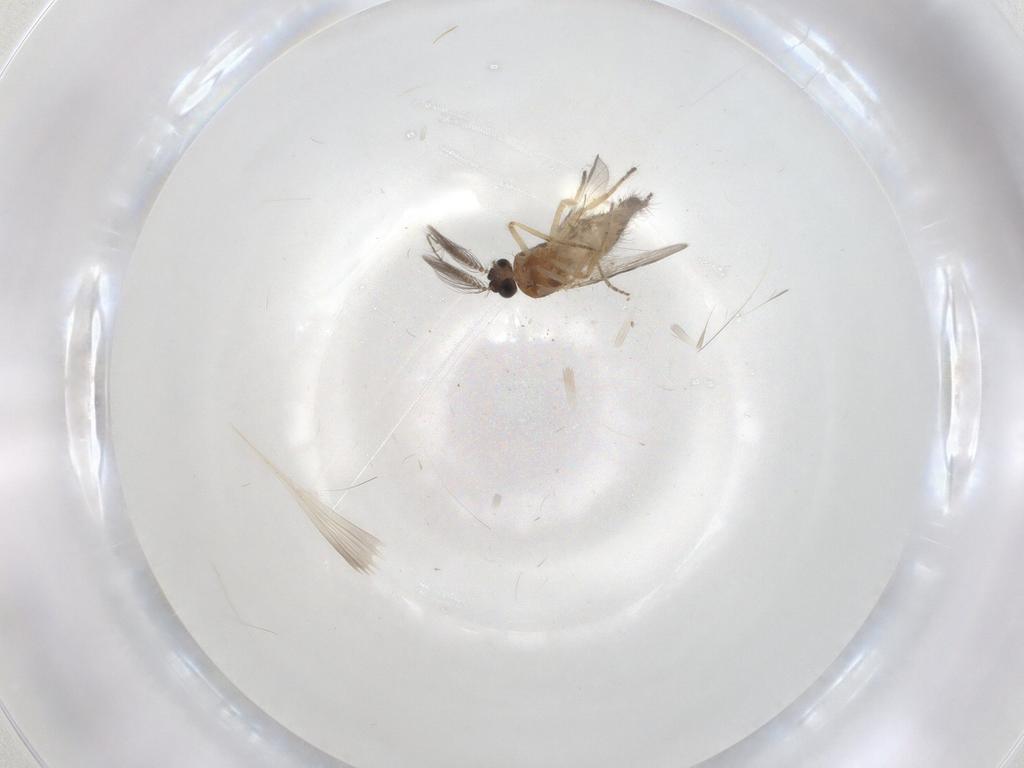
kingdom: Animalia
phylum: Arthropoda
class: Insecta
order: Diptera
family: Ceratopogonidae
